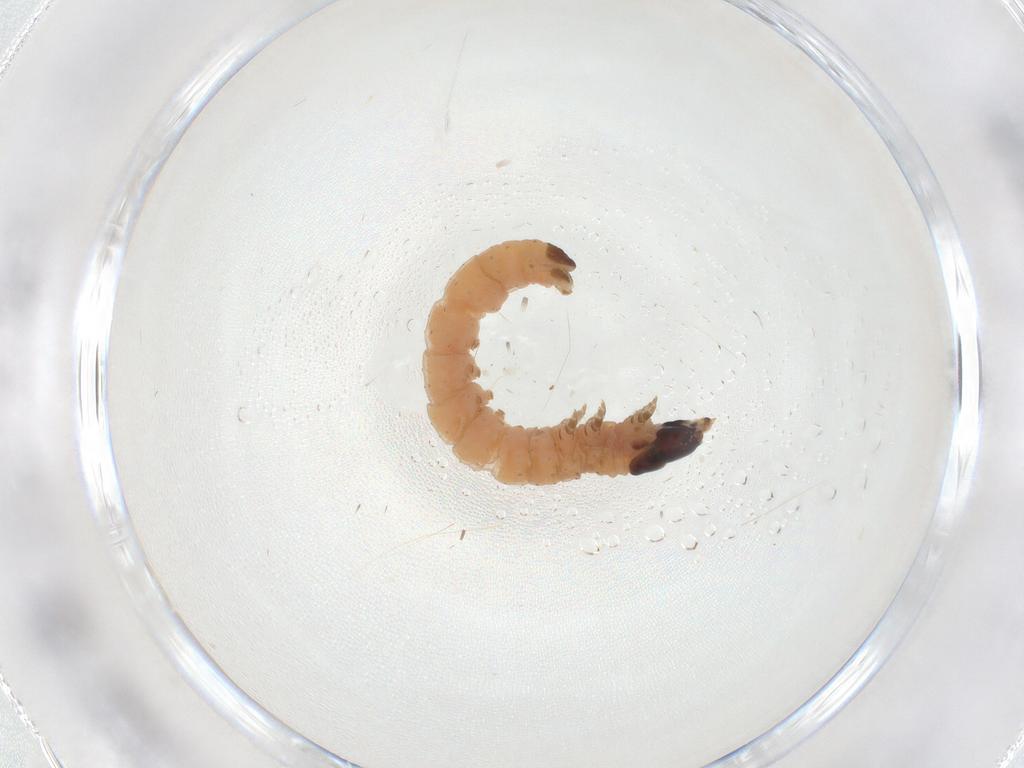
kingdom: Animalia
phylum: Arthropoda
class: Insecta
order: Lepidoptera
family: Gelechiidae
